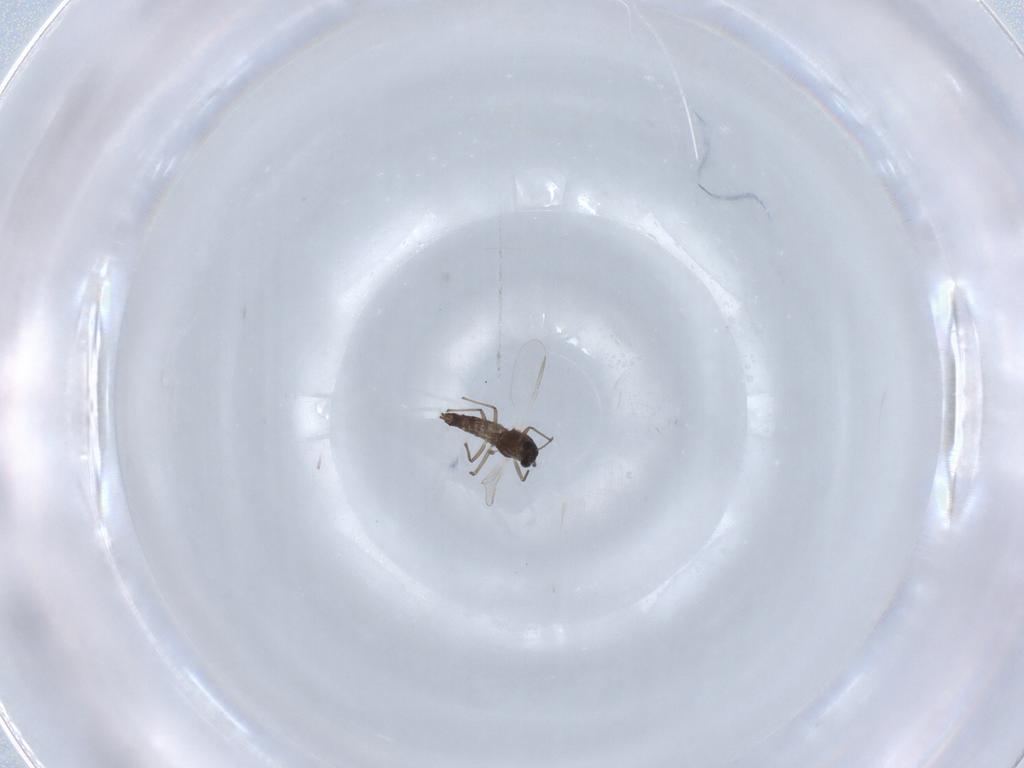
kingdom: Animalia
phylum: Arthropoda
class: Insecta
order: Diptera
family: Chironomidae
